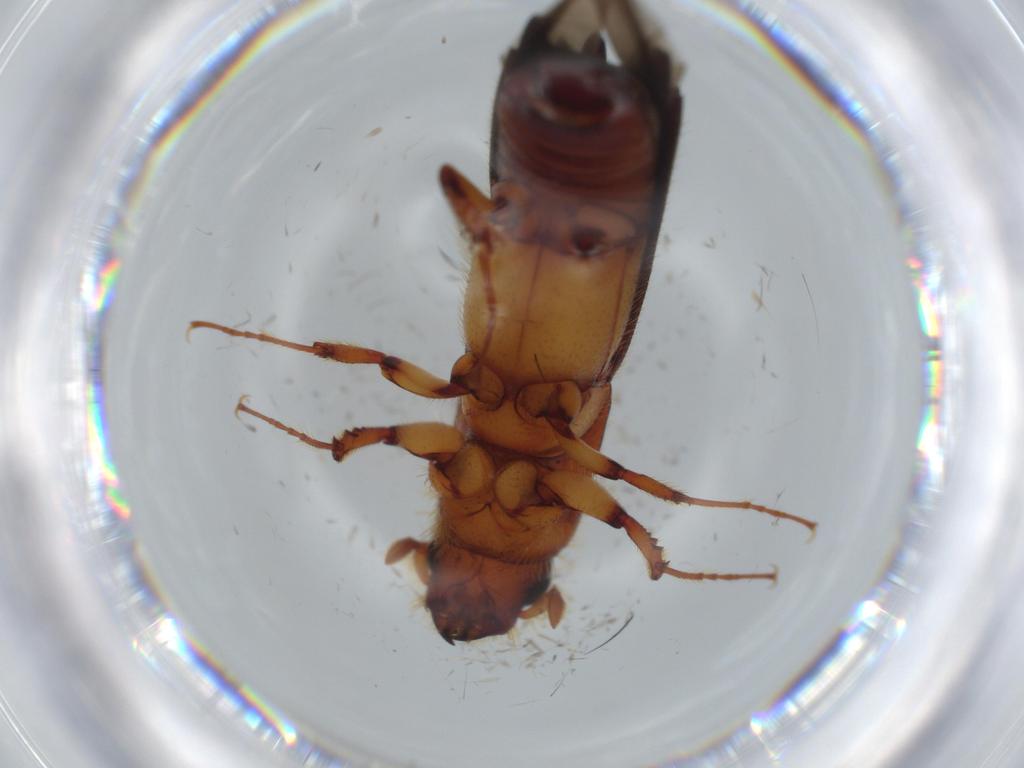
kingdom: Animalia
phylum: Arthropoda
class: Insecta
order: Coleoptera
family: Curculionidae
